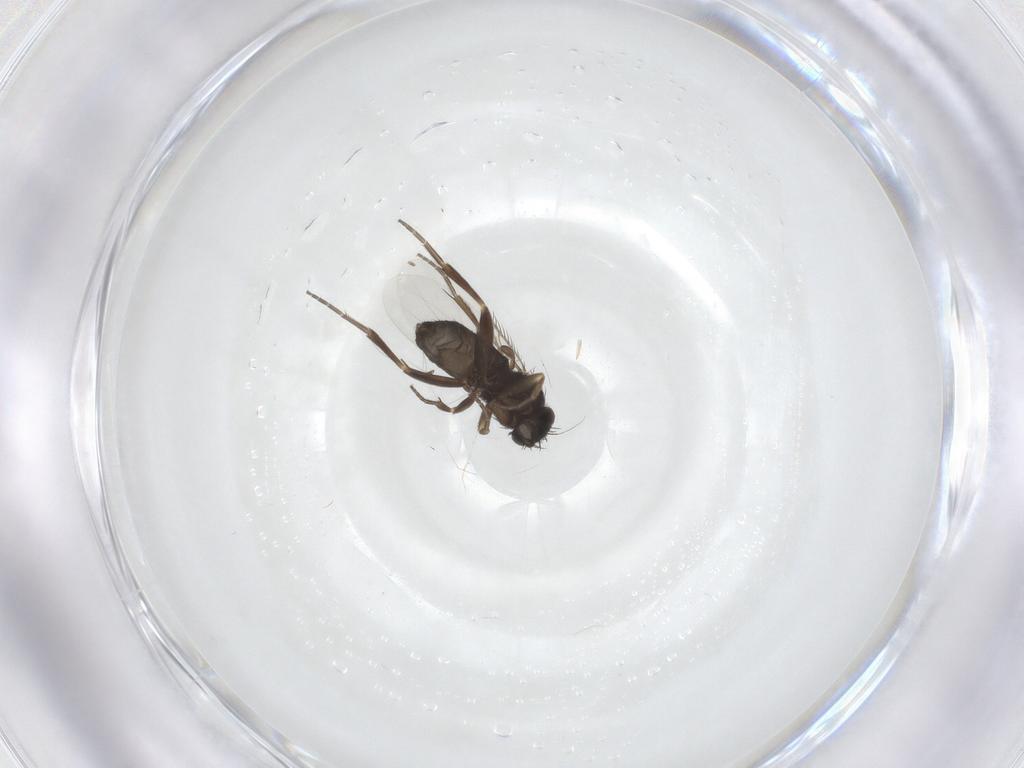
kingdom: Animalia
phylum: Arthropoda
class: Insecta
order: Diptera
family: Phoridae
